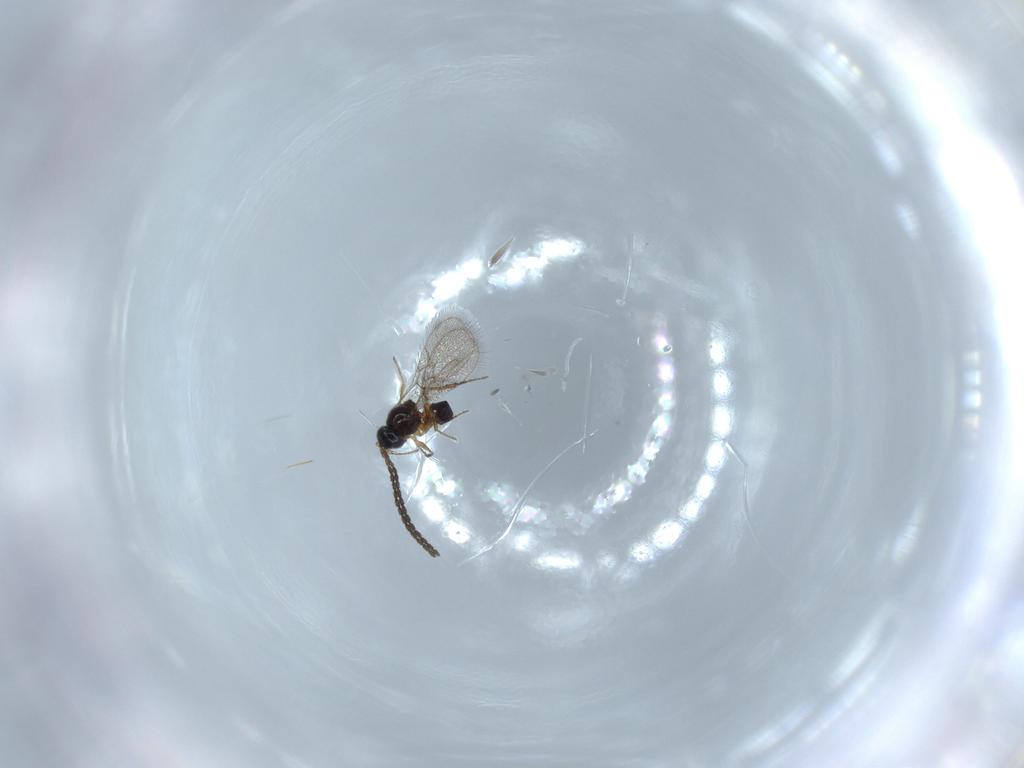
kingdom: Animalia
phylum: Arthropoda
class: Insecta
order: Hymenoptera
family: Figitidae
